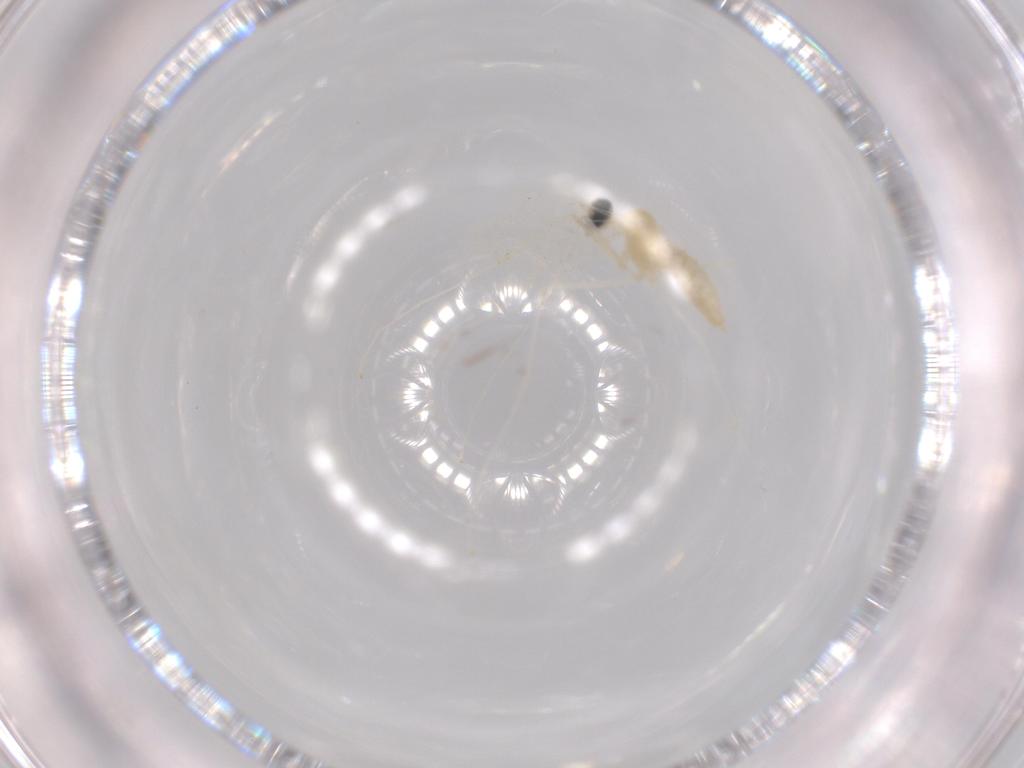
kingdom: Animalia
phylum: Arthropoda
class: Insecta
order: Diptera
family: Cecidomyiidae
